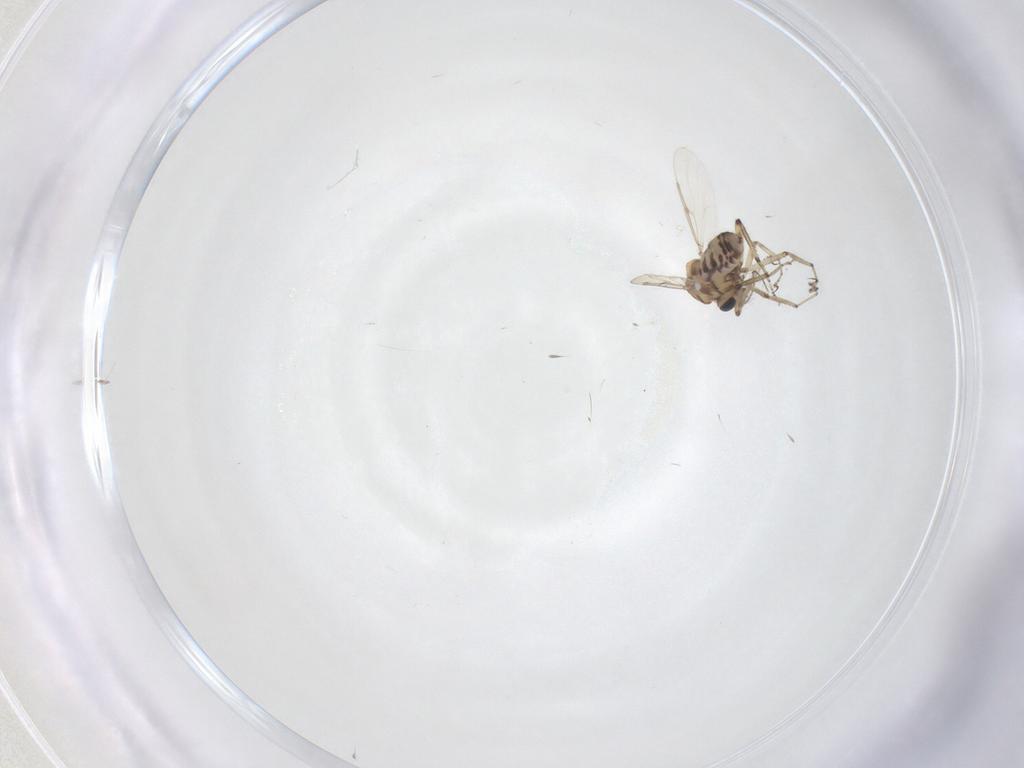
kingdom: Animalia
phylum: Arthropoda
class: Insecta
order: Diptera
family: Ceratopogonidae
